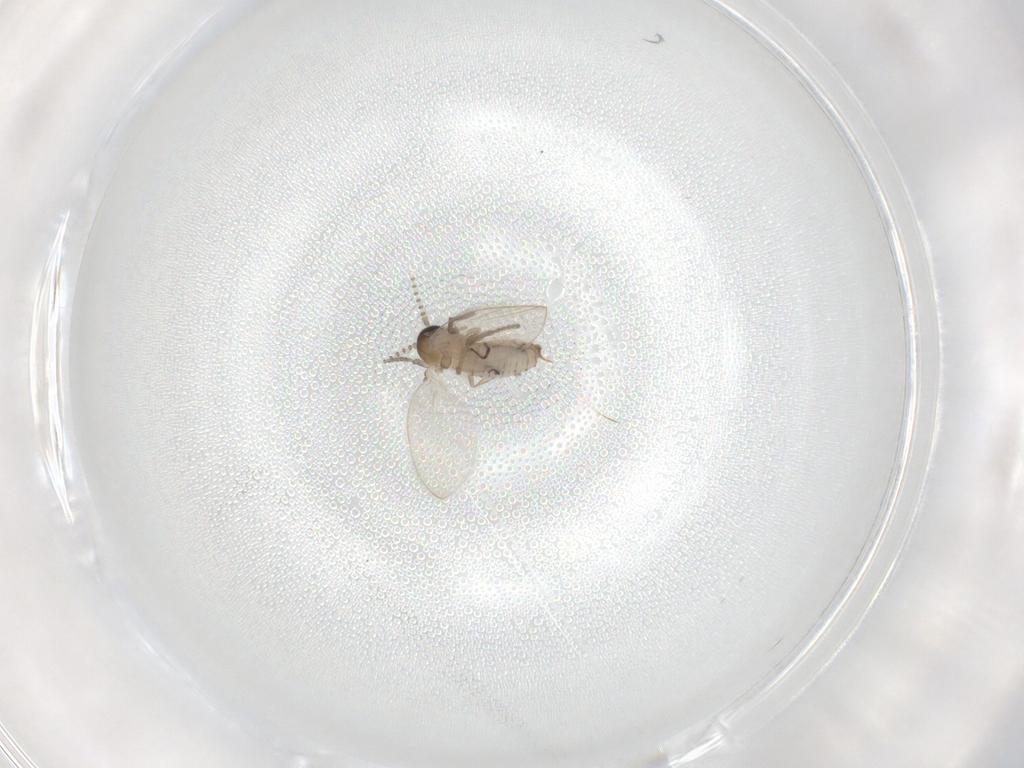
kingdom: Animalia
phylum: Arthropoda
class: Insecta
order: Diptera
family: Psychodidae
